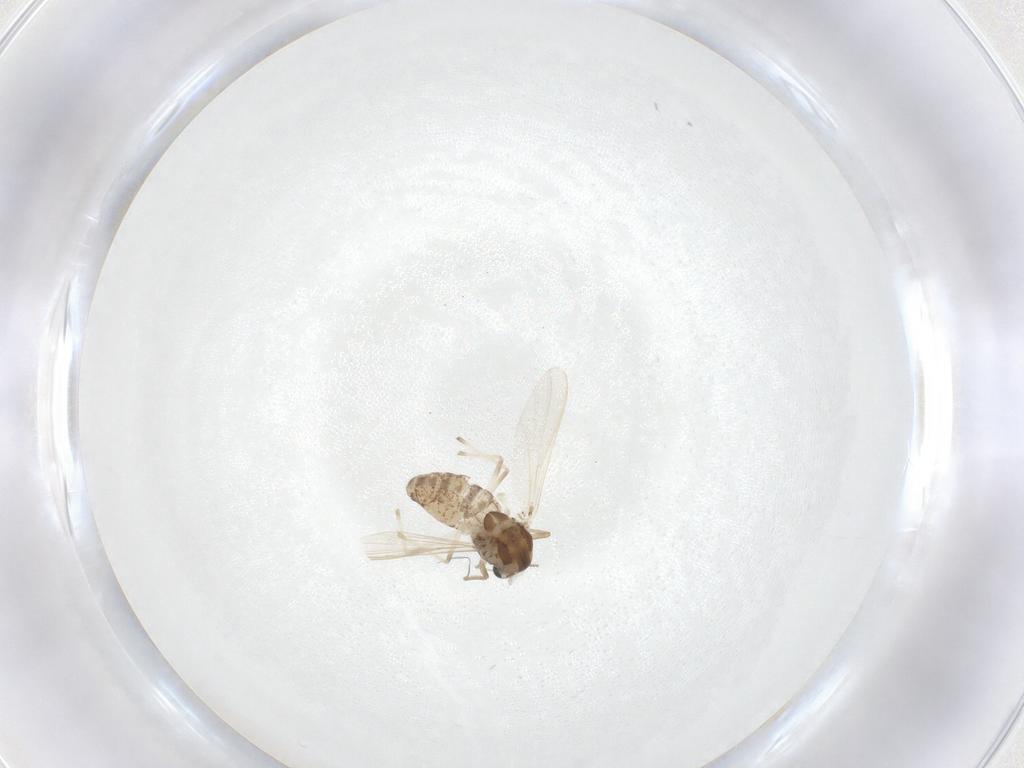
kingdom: Animalia
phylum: Arthropoda
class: Insecta
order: Diptera
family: Chironomidae
